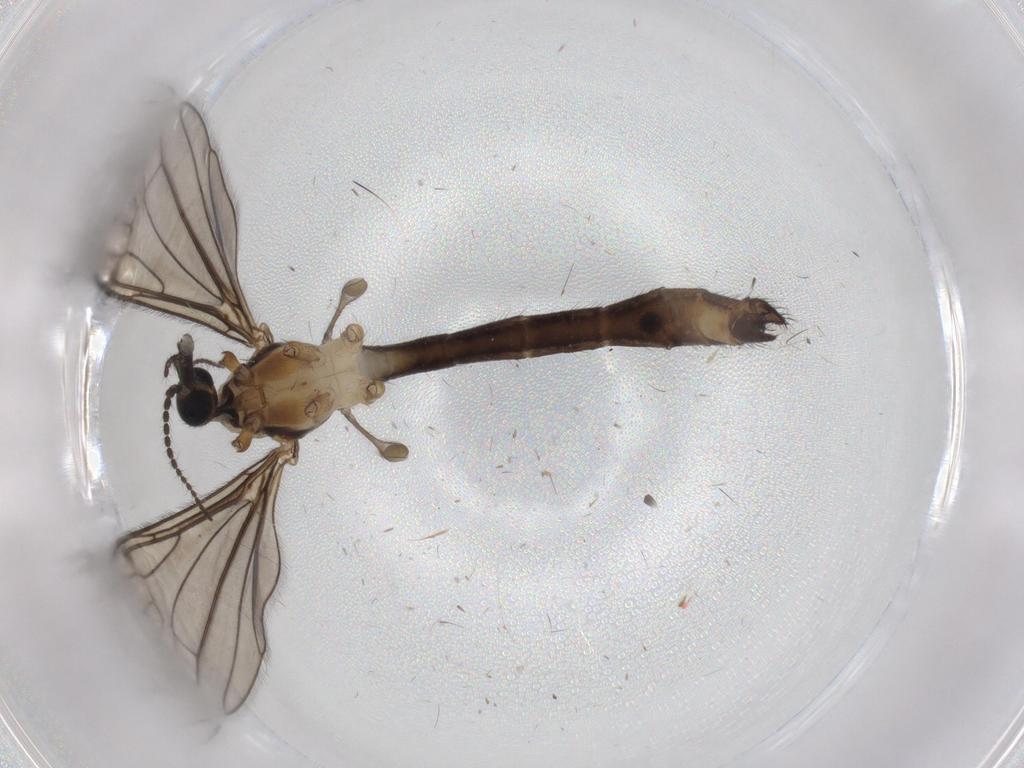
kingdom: Animalia
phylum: Arthropoda
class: Insecta
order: Diptera
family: Limoniidae
